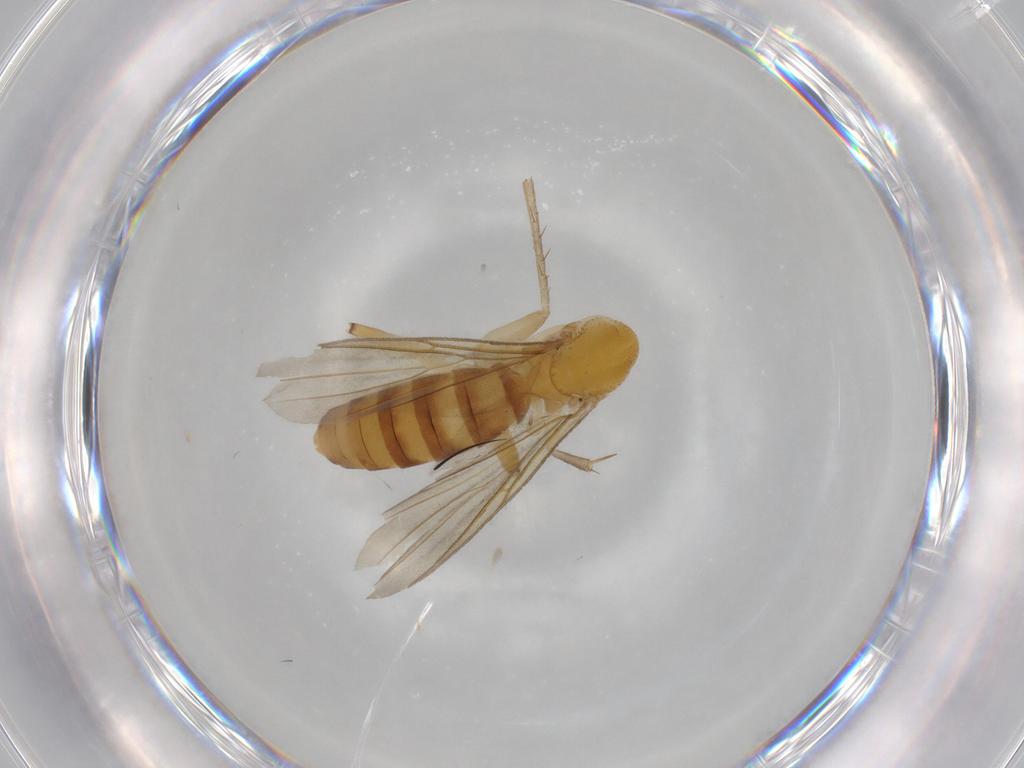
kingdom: Animalia
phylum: Arthropoda
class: Insecta
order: Diptera
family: Mycetophilidae
